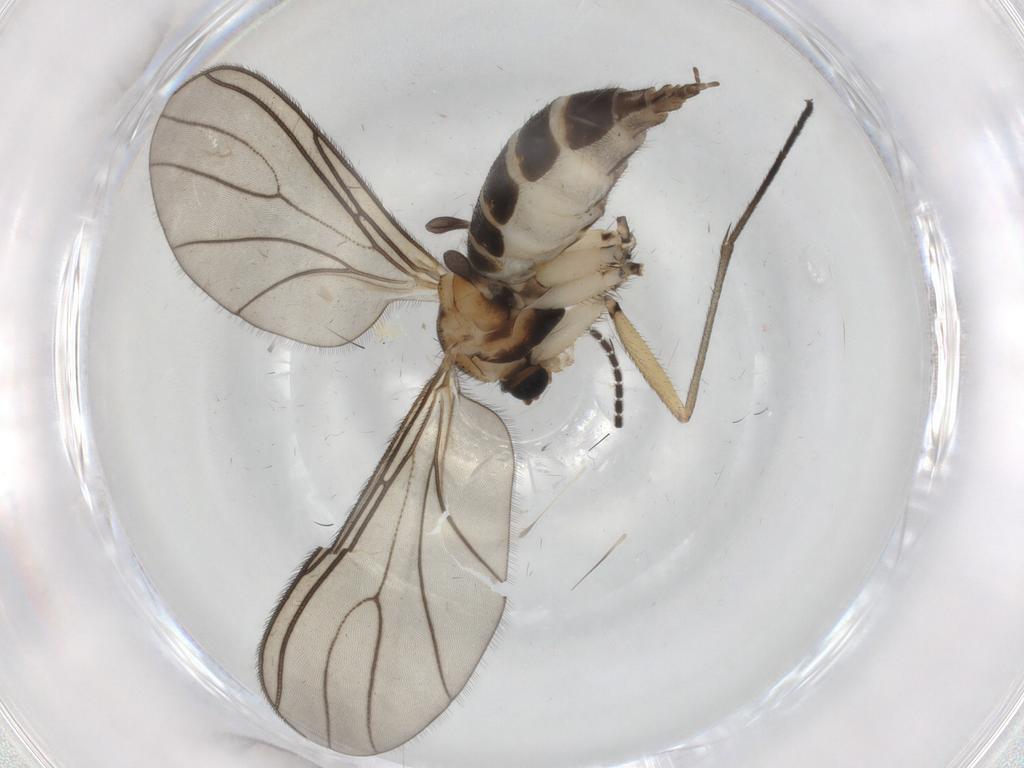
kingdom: Animalia
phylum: Arthropoda
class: Insecta
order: Diptera
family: Sciaridae
